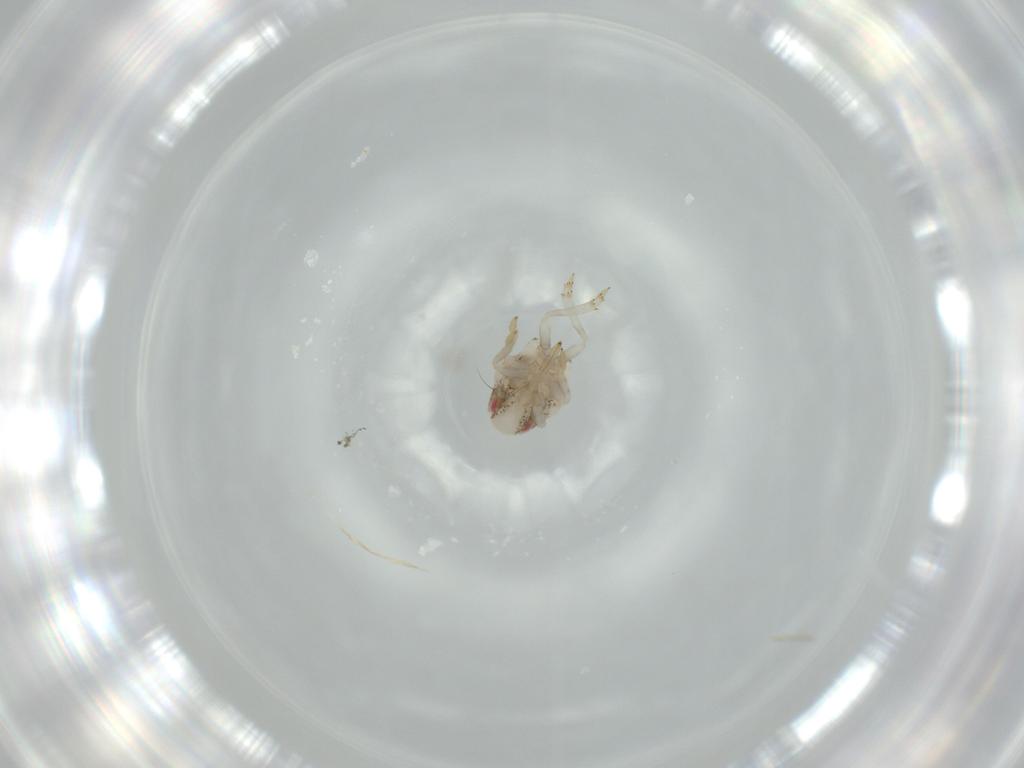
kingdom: Animalia
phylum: Arthropoda
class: Insecta
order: Hemiptera
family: Acanaloniidae
